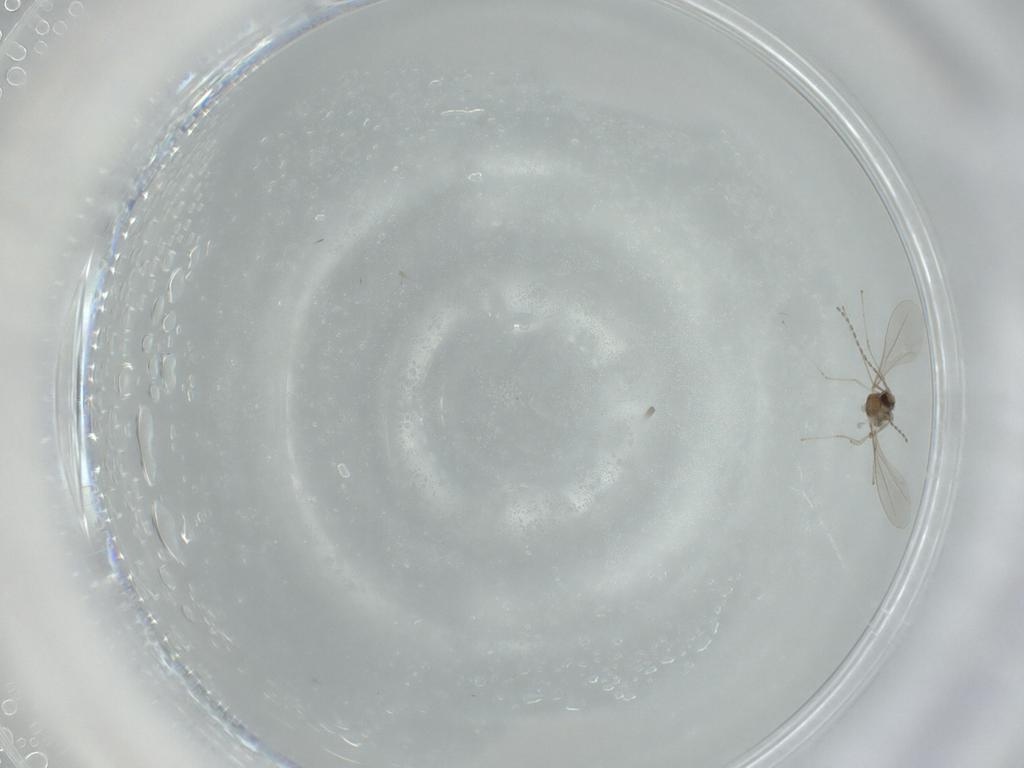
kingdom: Animalia
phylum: Arthropoda
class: Insecta
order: Diptera
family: Cecidomyiidae
